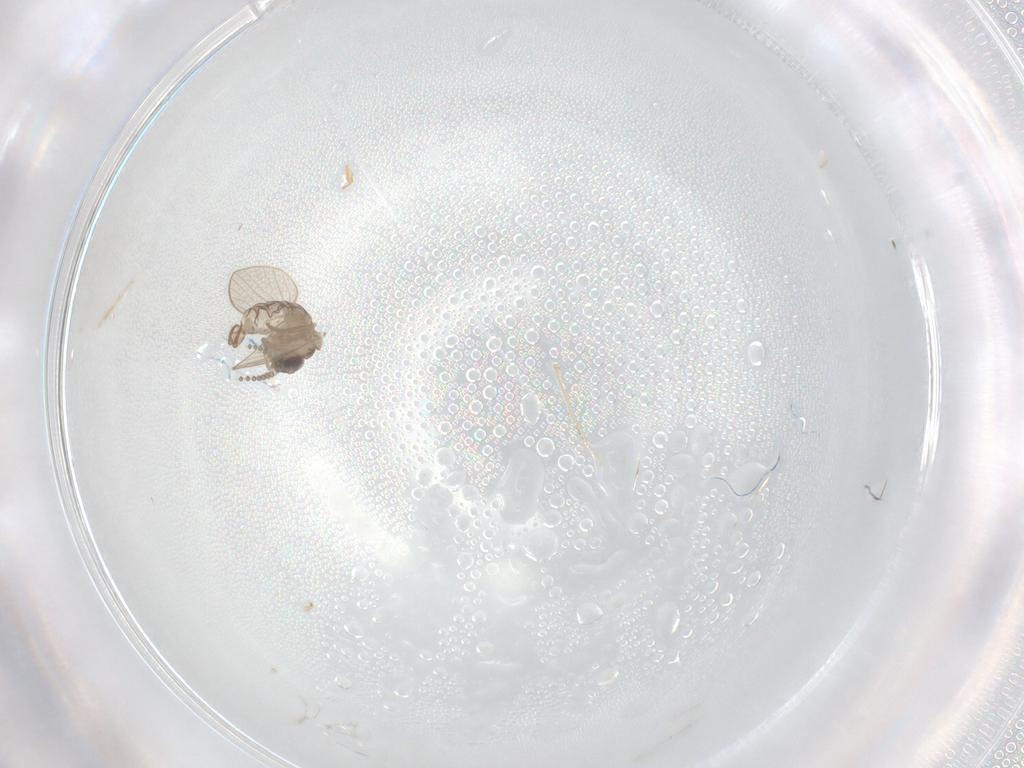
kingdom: Animalia
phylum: Arthropoda
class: Insecta
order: Diptera
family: Psychodidae
